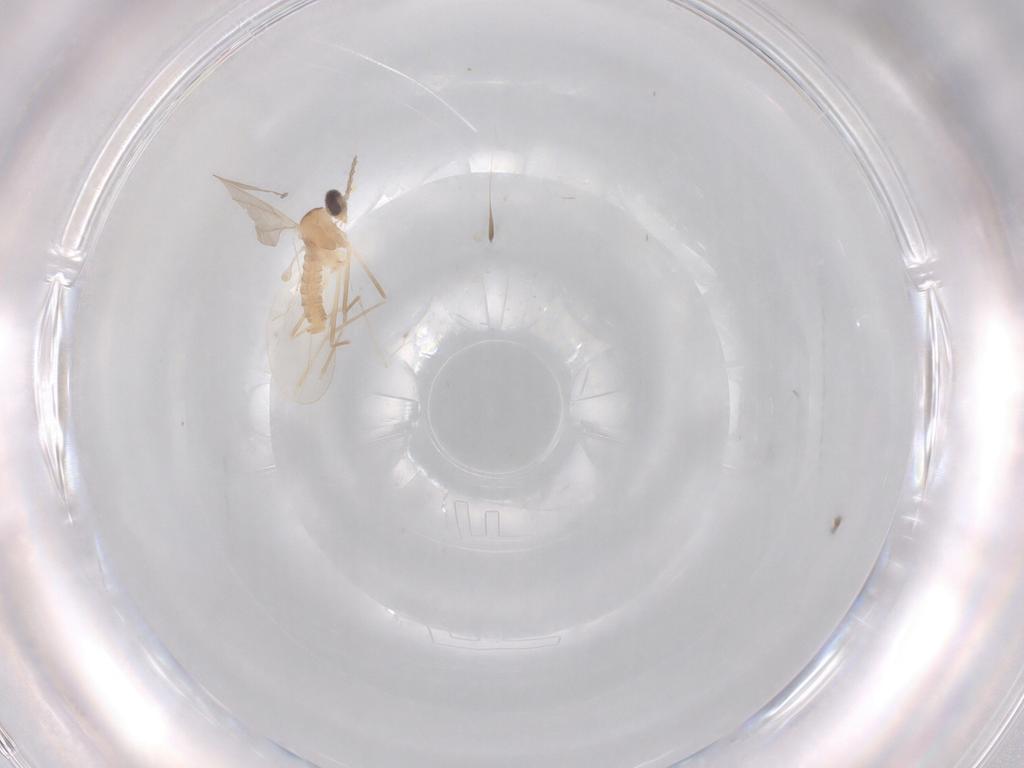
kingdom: Animalia
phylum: Arthropoda
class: Insecta
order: Diptera
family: Cecidomyiidae
